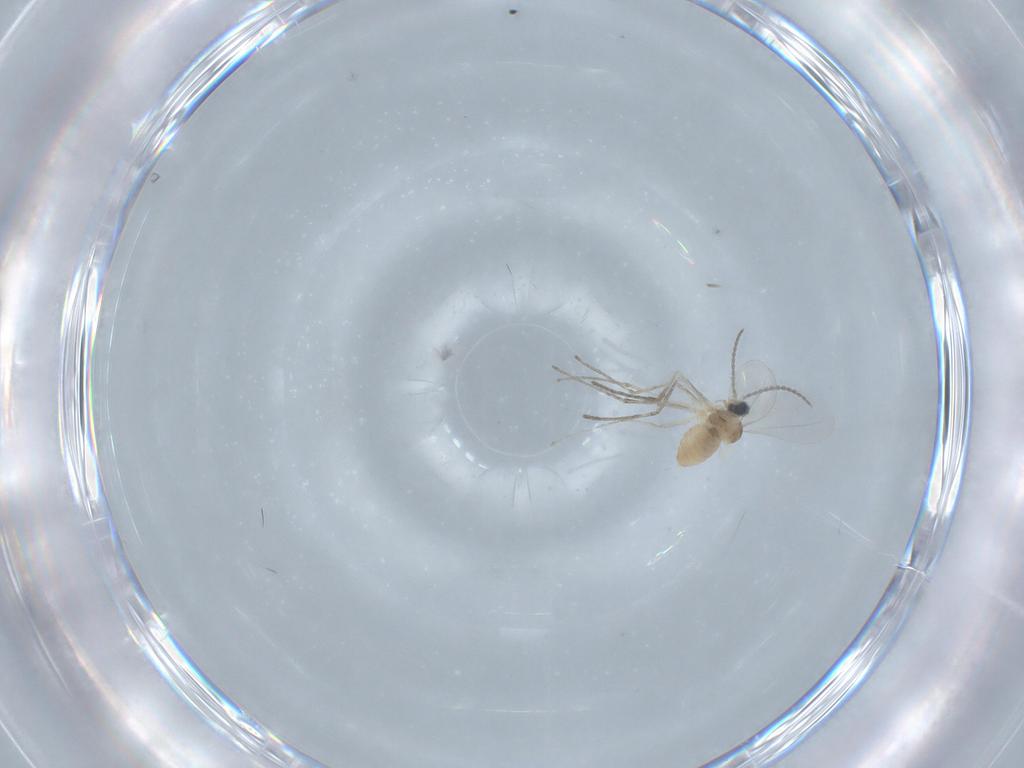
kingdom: Animalia
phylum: Arthropoda
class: Insecta
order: Diptera
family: Cecidomyiidae
